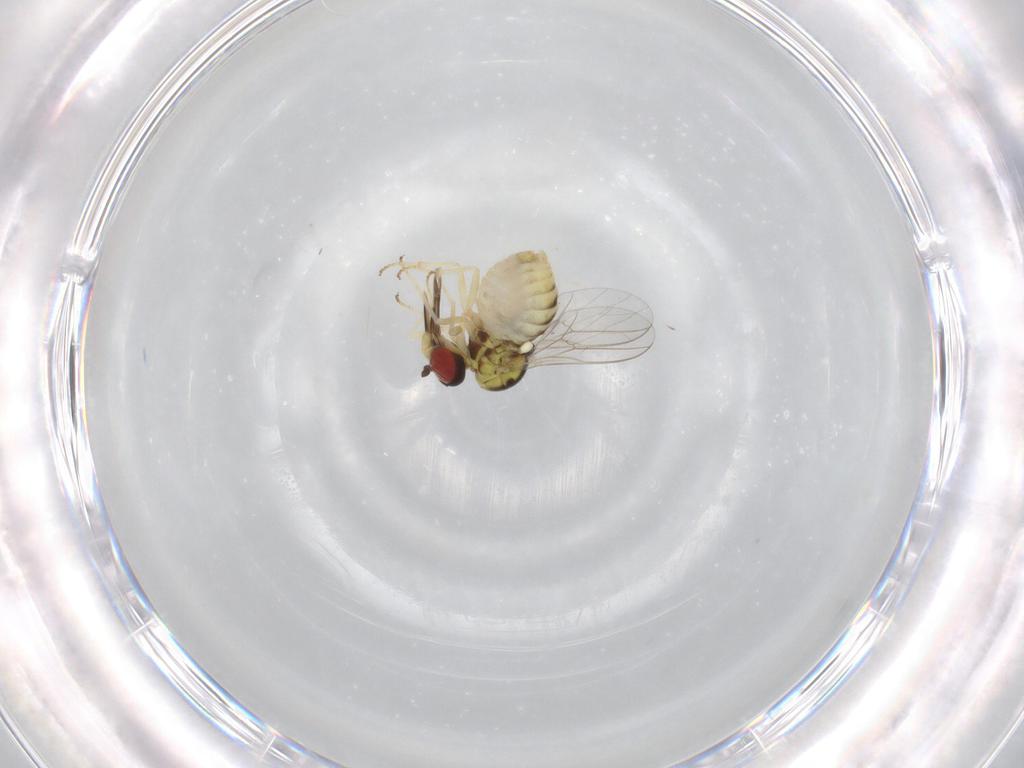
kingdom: Animalia
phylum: Arthropoda
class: Insecta
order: Diptera
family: Bombyliidae
